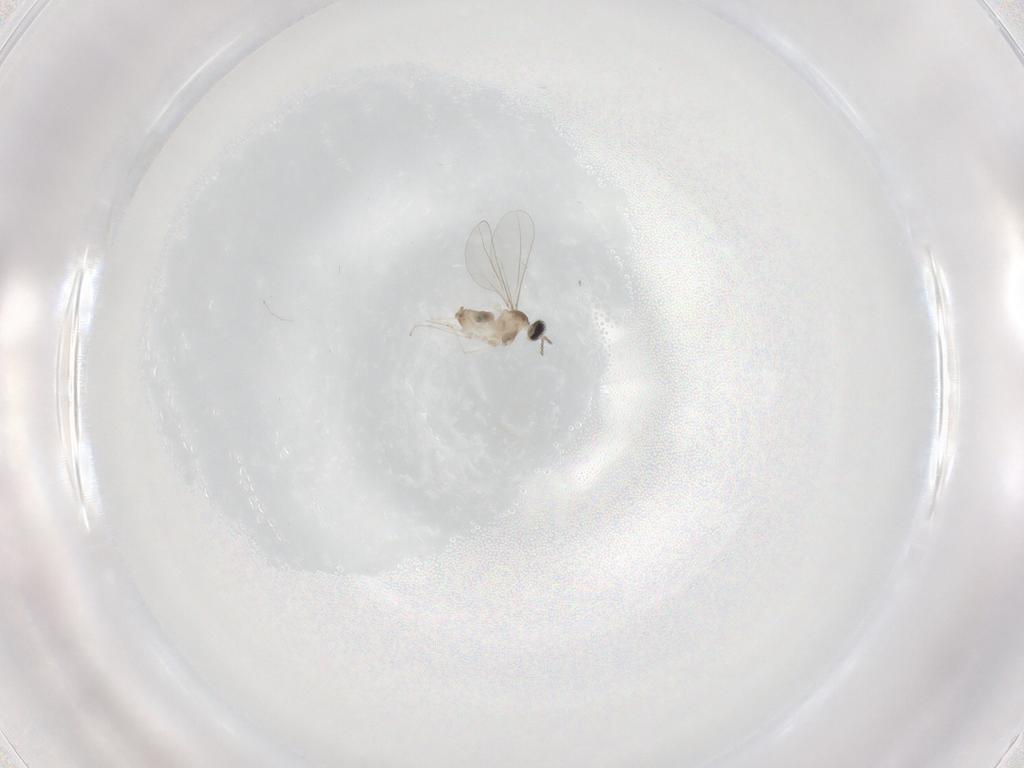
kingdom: Animalia
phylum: Arthropoda
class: Insecta
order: Diptera
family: Cecidomyiidae
